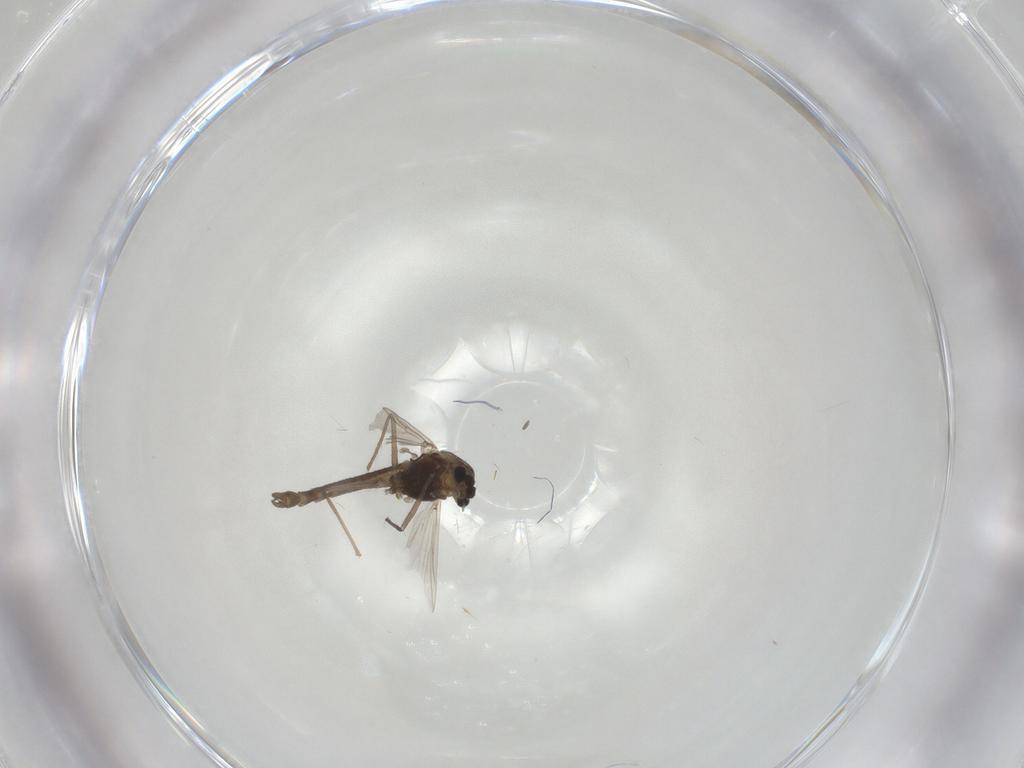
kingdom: Animalia
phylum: Arthropoda
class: Insecta
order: Diptera
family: Chironomidae
